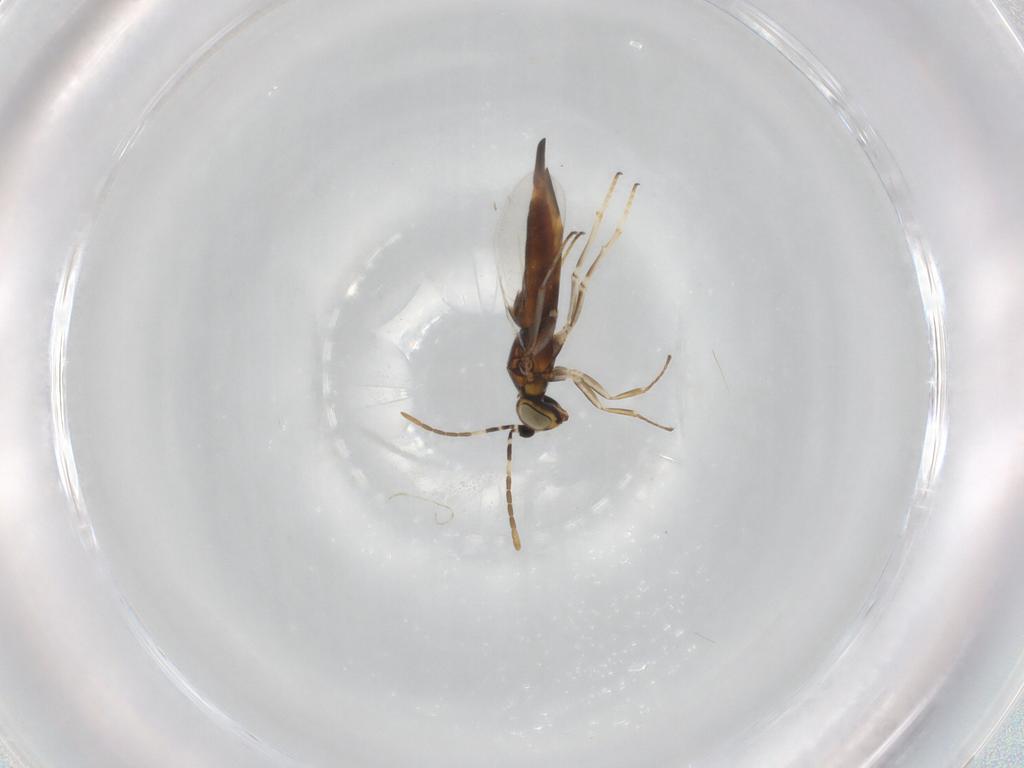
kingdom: Animalia
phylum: Arthropoda
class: Insecta
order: Hymenoptera
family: Encyrtidae
